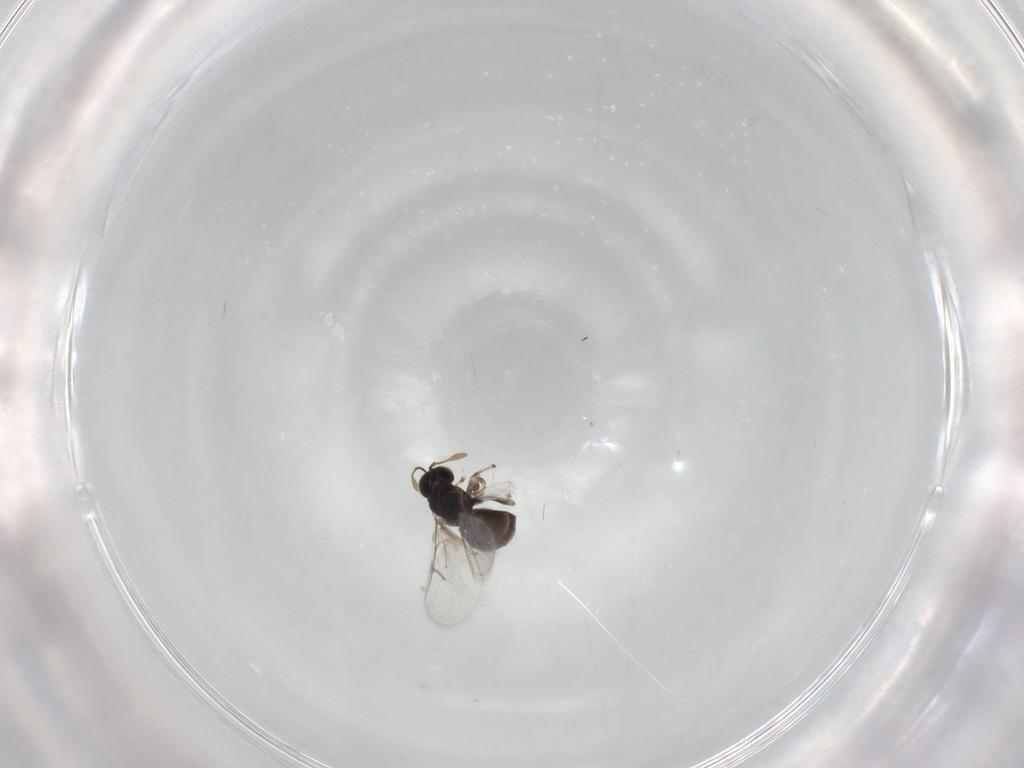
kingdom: Animalia
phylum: Arthropoda
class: Insecta
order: Hymenoptera
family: Eulophidae
